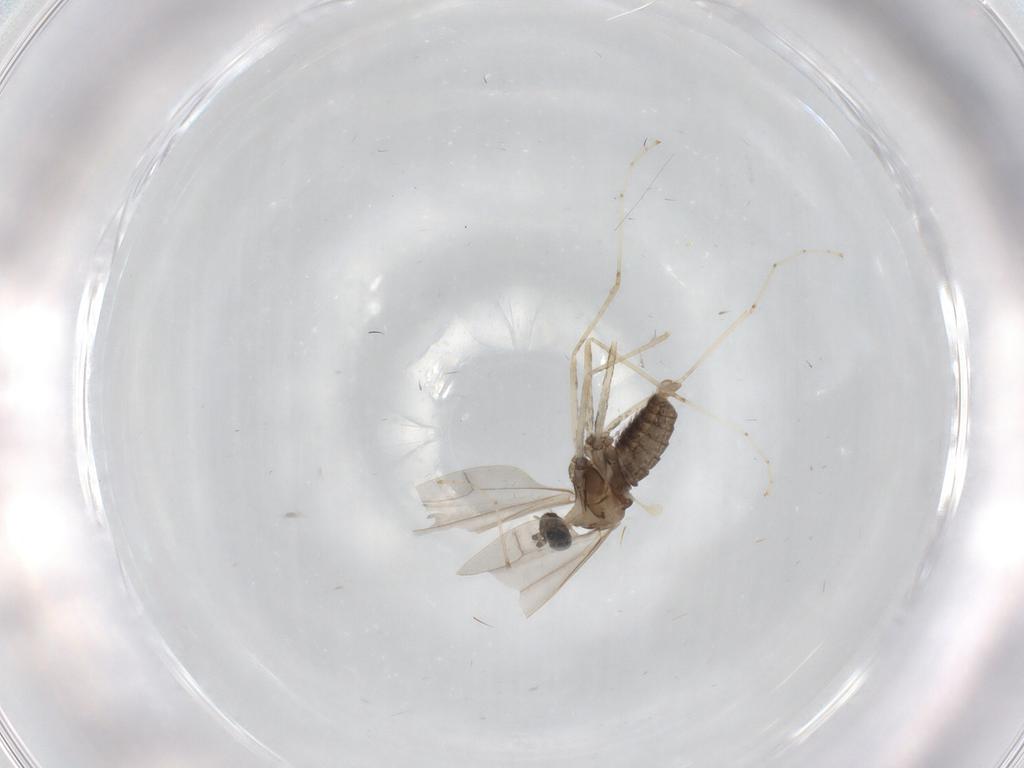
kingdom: Animalia
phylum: Arthropoda
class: Insecta
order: Diptera
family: Cecidomyiidae
